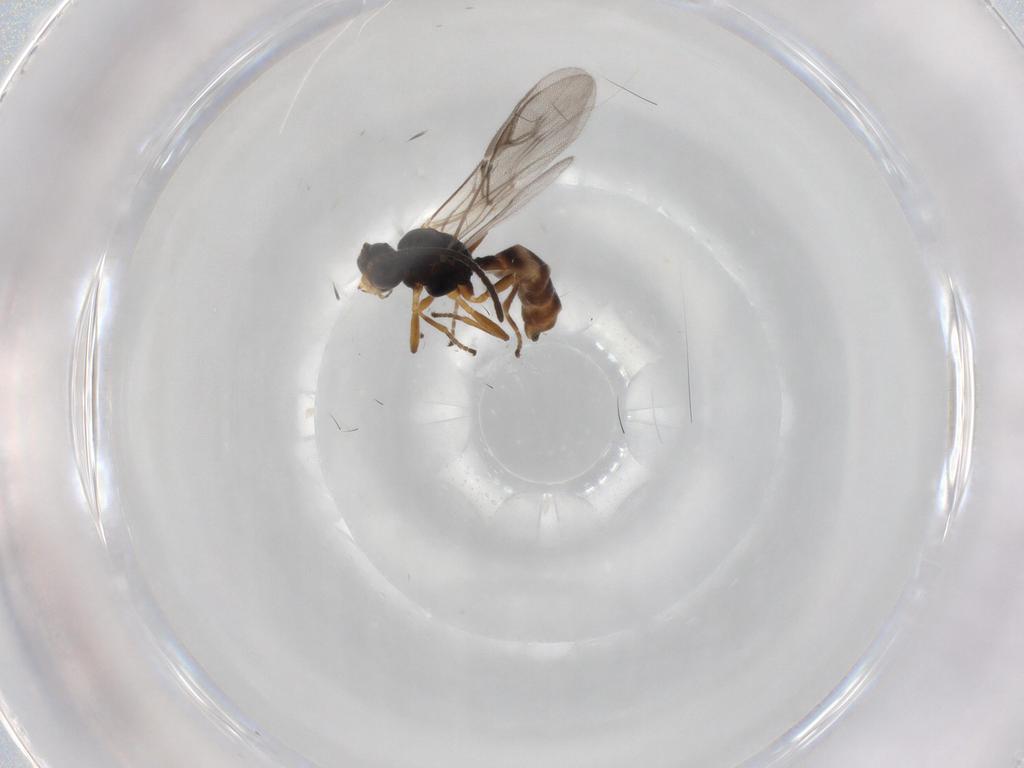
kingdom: Animalia
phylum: Arthropoda
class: Insecta
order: Hymenoptera
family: Braconidae
